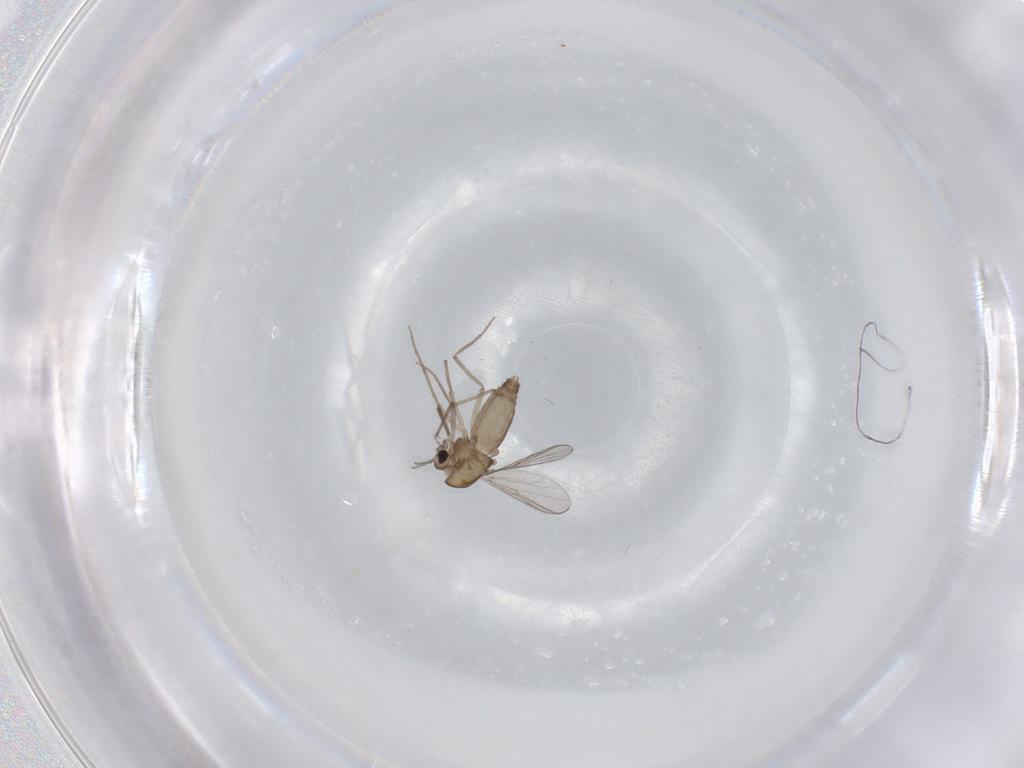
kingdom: Animalia
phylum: Arthropoda
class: Insecta
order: Diptera
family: Chironomidae
